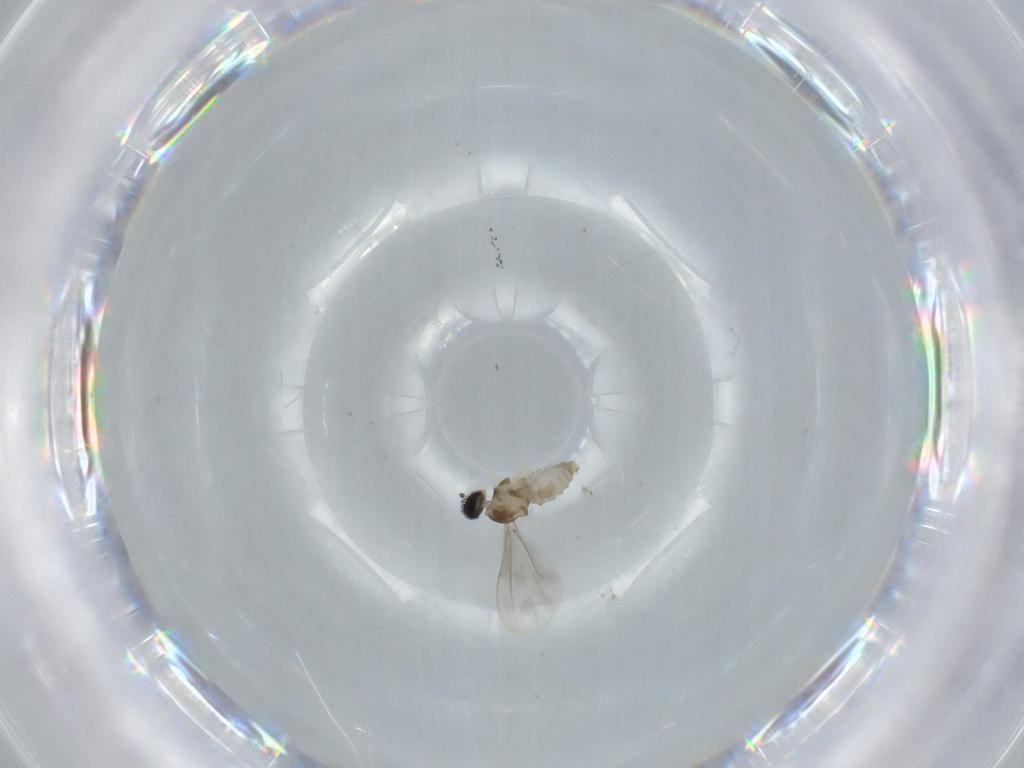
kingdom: Animalia
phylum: Arthropoda
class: Insecta
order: Diptera
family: Cecidomyiidae
